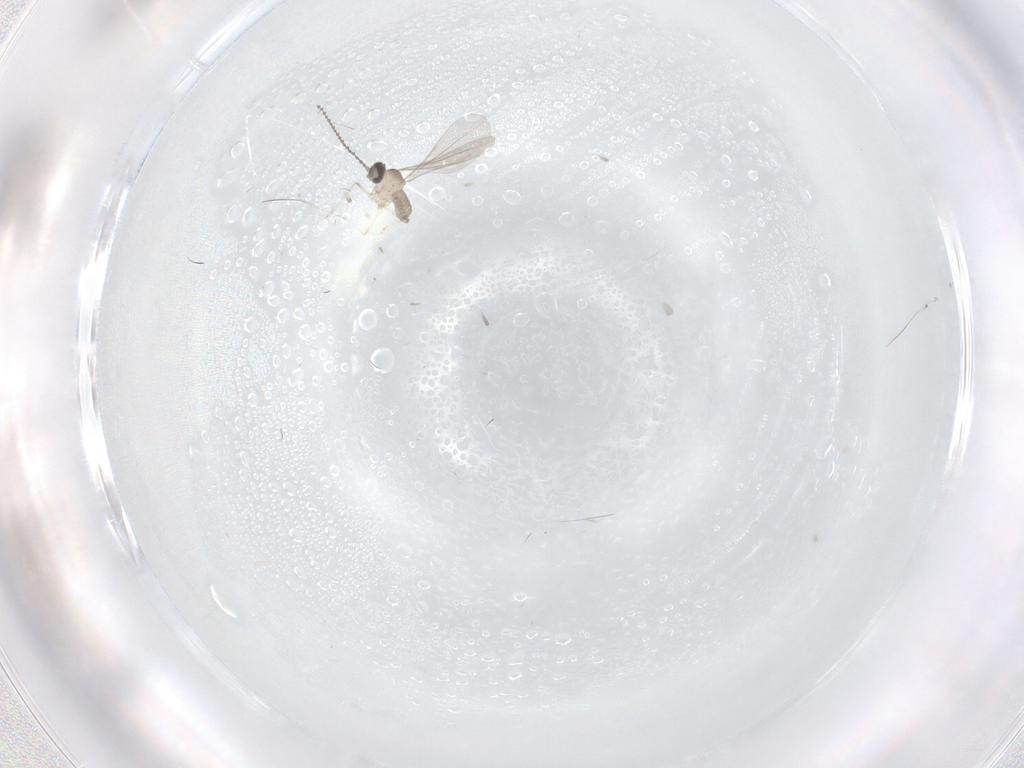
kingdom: Animalia
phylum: Arthropoda
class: Insecta
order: Diptera
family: Cecidomyiidae
